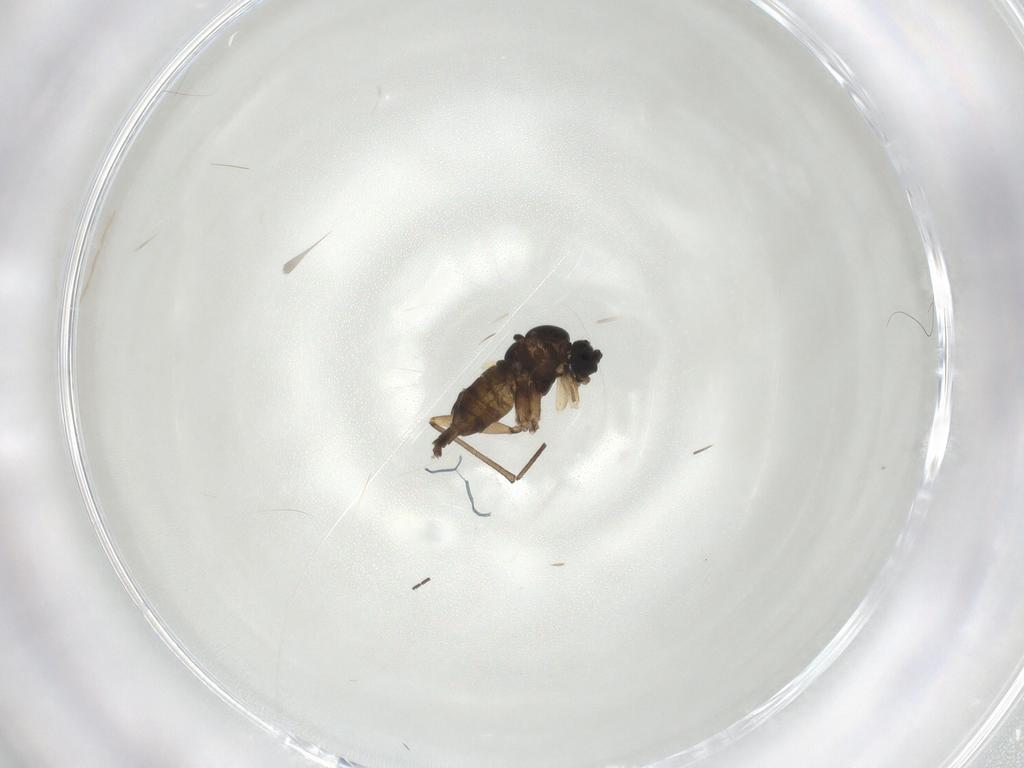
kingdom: Animalia
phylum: Arthropoda
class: Insecta
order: Diptera
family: Sciaridae
